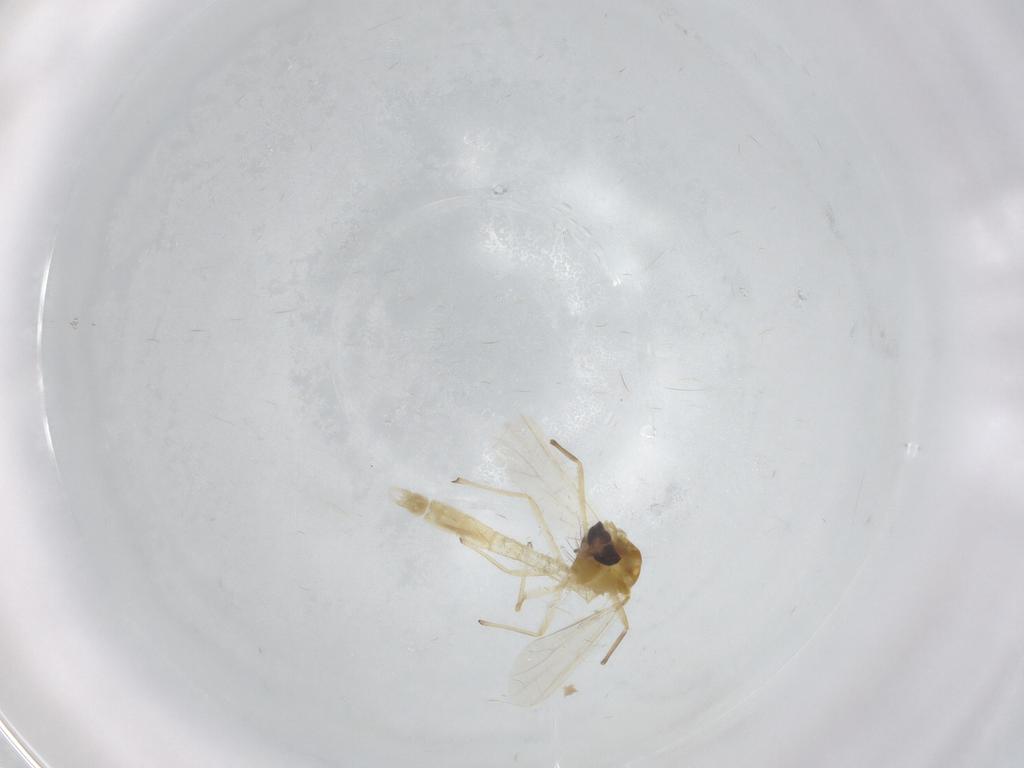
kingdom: Animalia
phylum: Arthropoda
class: Insecta
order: Diptera
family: Chironomidae
